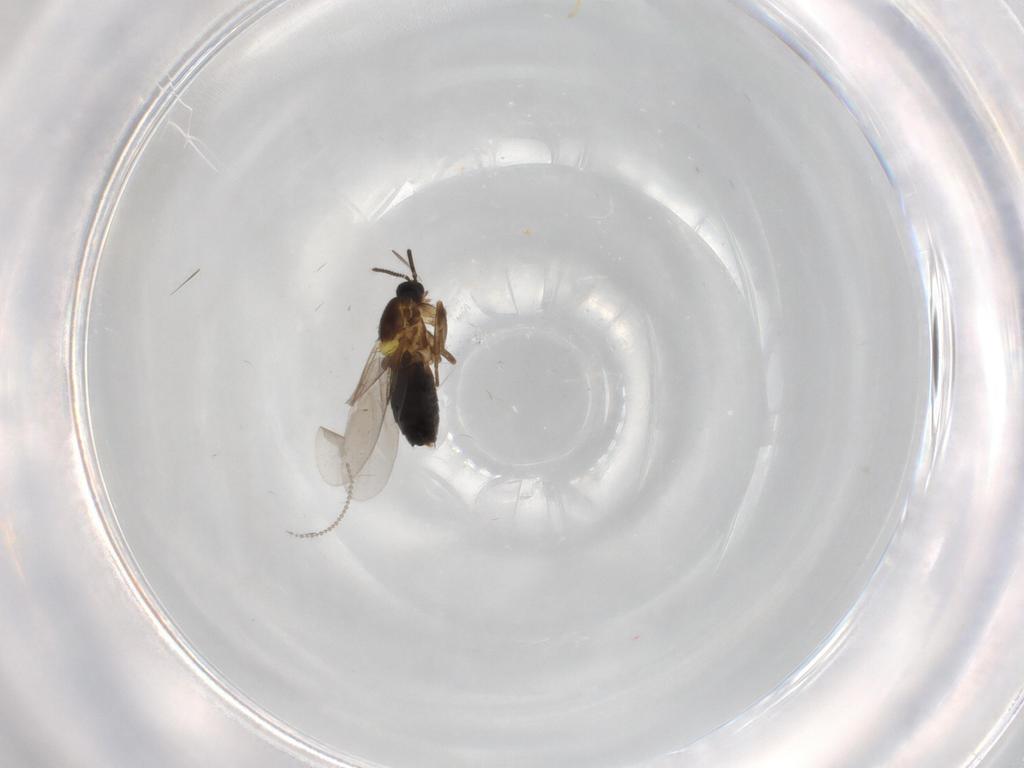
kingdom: Animalia
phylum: Arthropoda
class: Insecta
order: Diptera
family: Scatopsidae
